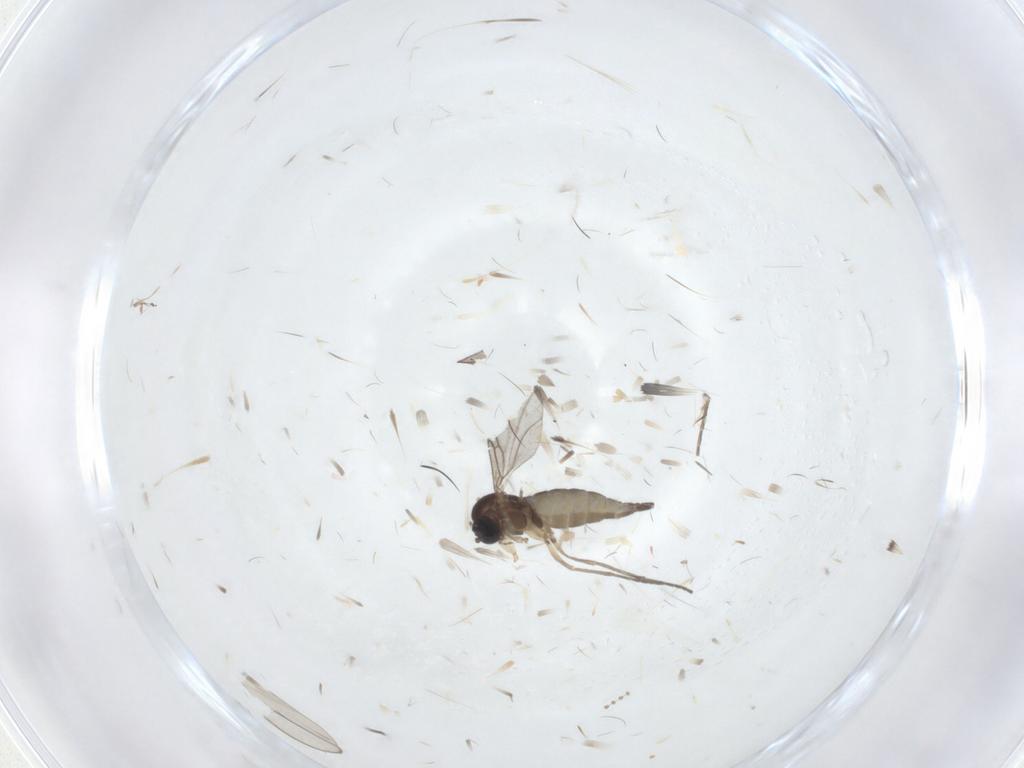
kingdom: Animalia
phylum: Arthropoda
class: Insecta
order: Diptera
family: Sciaridae
